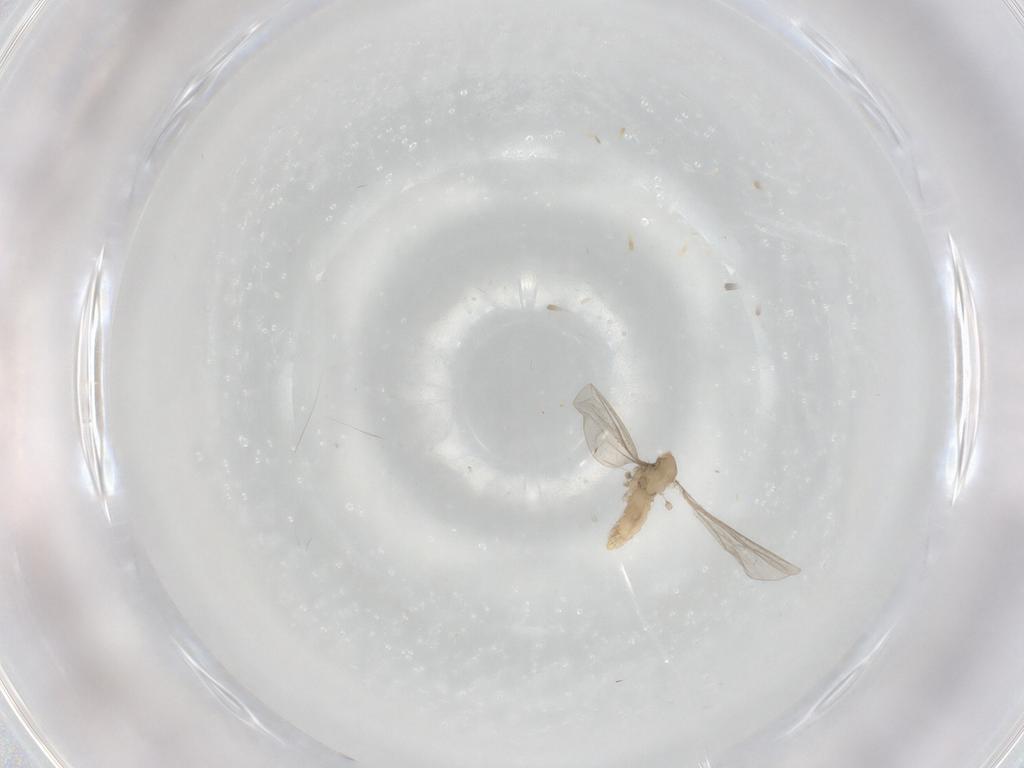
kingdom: Animalia
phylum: Arthropoda
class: Insecta
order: Diptera
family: Cecidomyiidae
